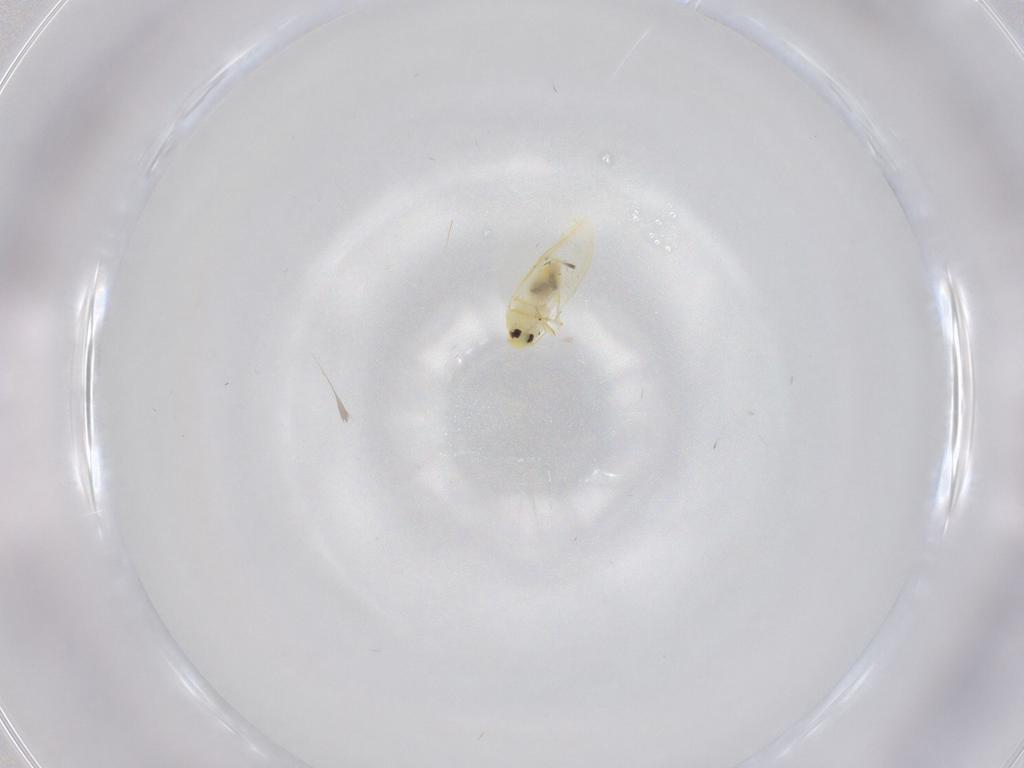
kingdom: Animalia
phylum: Arthropoda
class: Insecta
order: Hemiptera
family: Aleyrodidae
